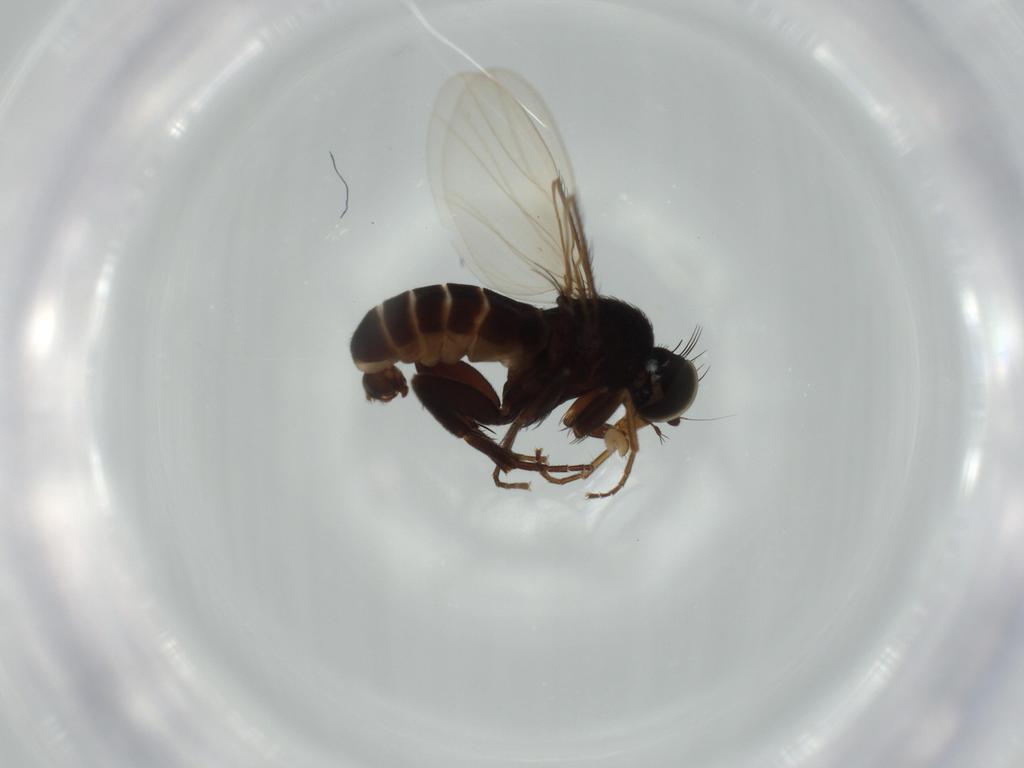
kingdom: Animalia
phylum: Arthropoda
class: Insecta
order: Diptera
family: Phoridae
